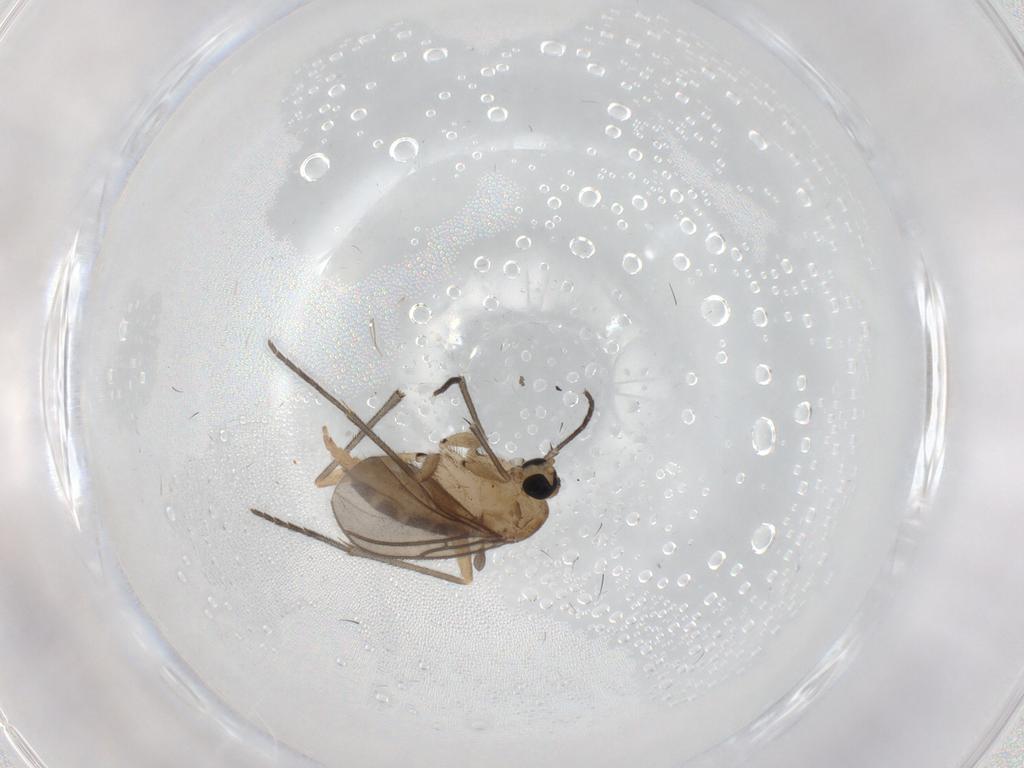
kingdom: Animalia
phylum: Arthropoda
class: Insecta
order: Diptera
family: Sciaridae
